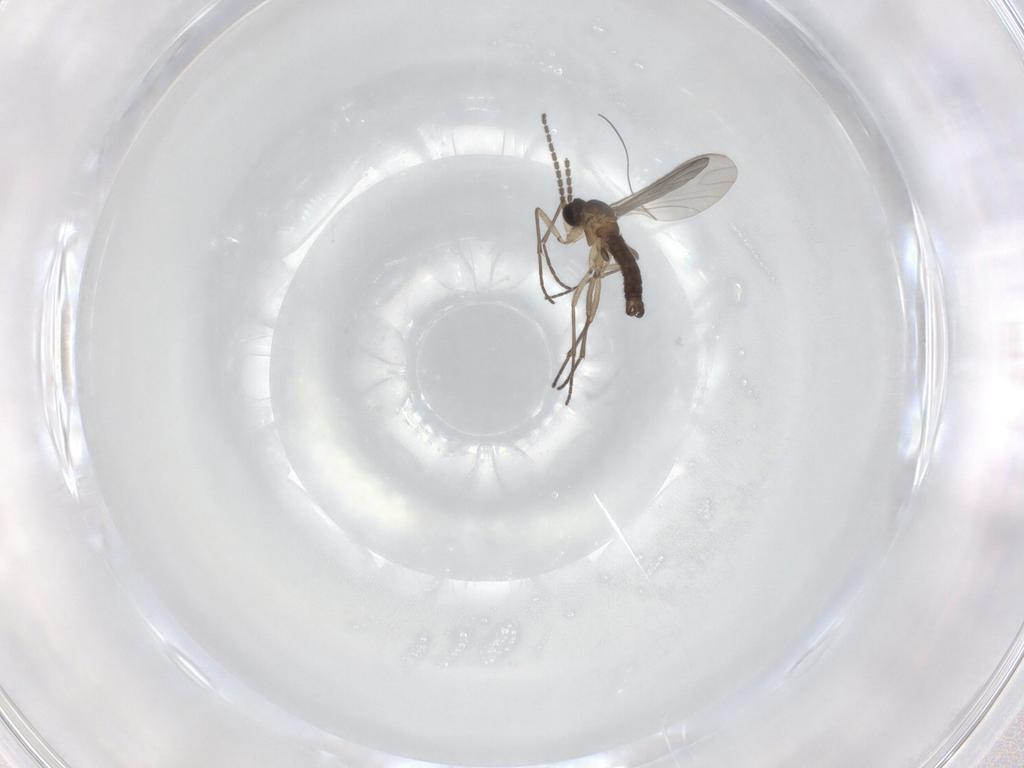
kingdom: Animalia
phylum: Arthropoda
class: Insecta
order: Diptera
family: Sciaridae
